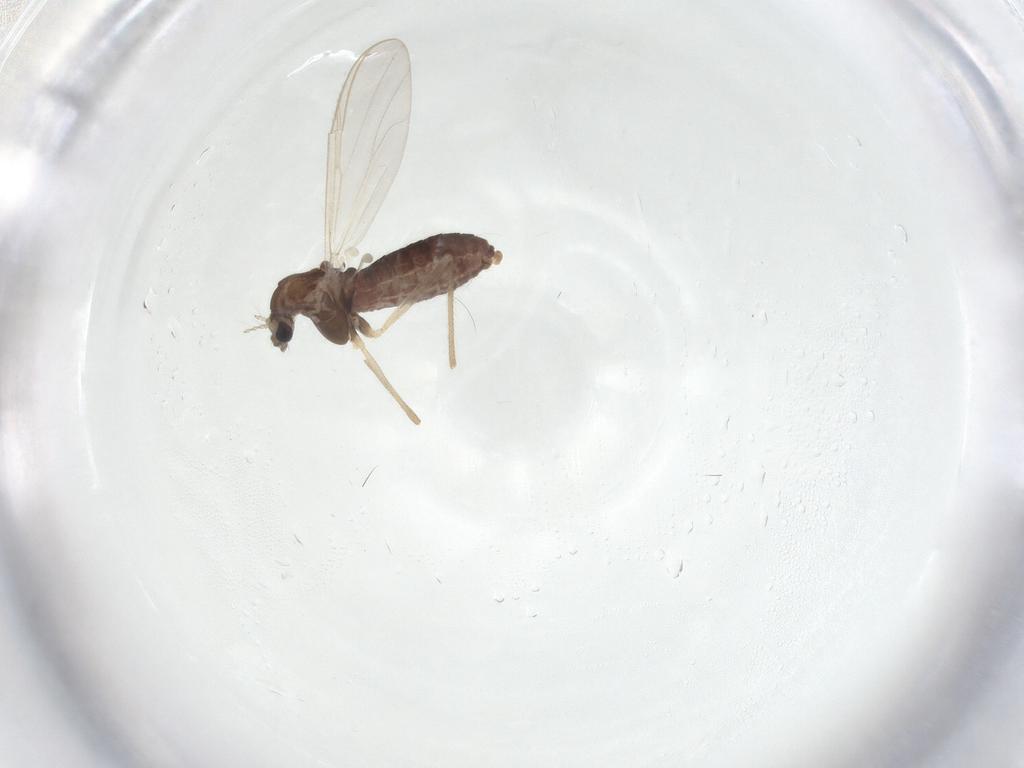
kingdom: Animalia
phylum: Arthropoda
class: Insecta
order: Diptera
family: Chironomidae
